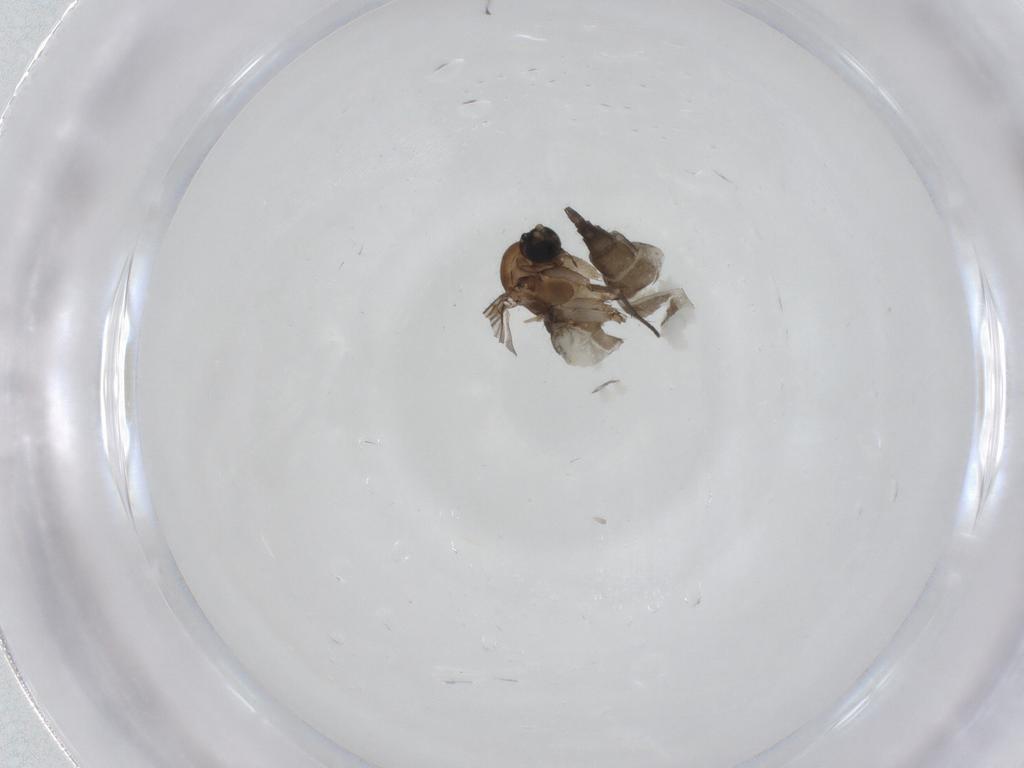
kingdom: Animalia
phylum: Arthropoda
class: Insecta
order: Diptera
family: Sciaridae
